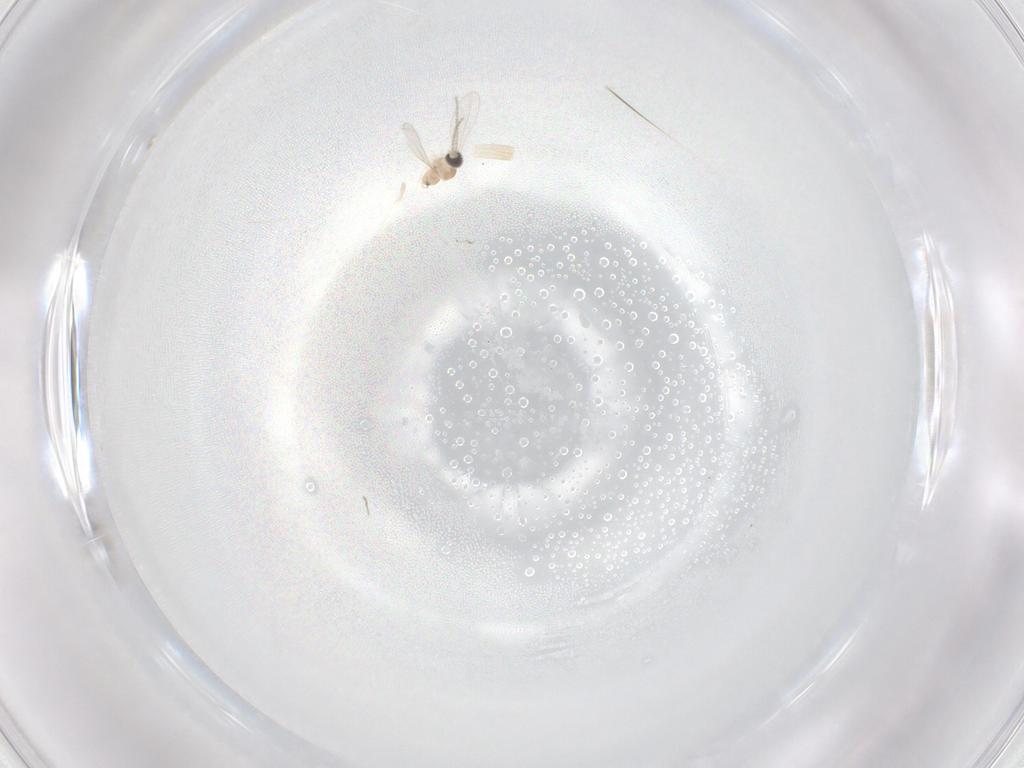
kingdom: Animalia
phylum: Arthropoda
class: Insecta
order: Diptera
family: Cecidomyiidae
